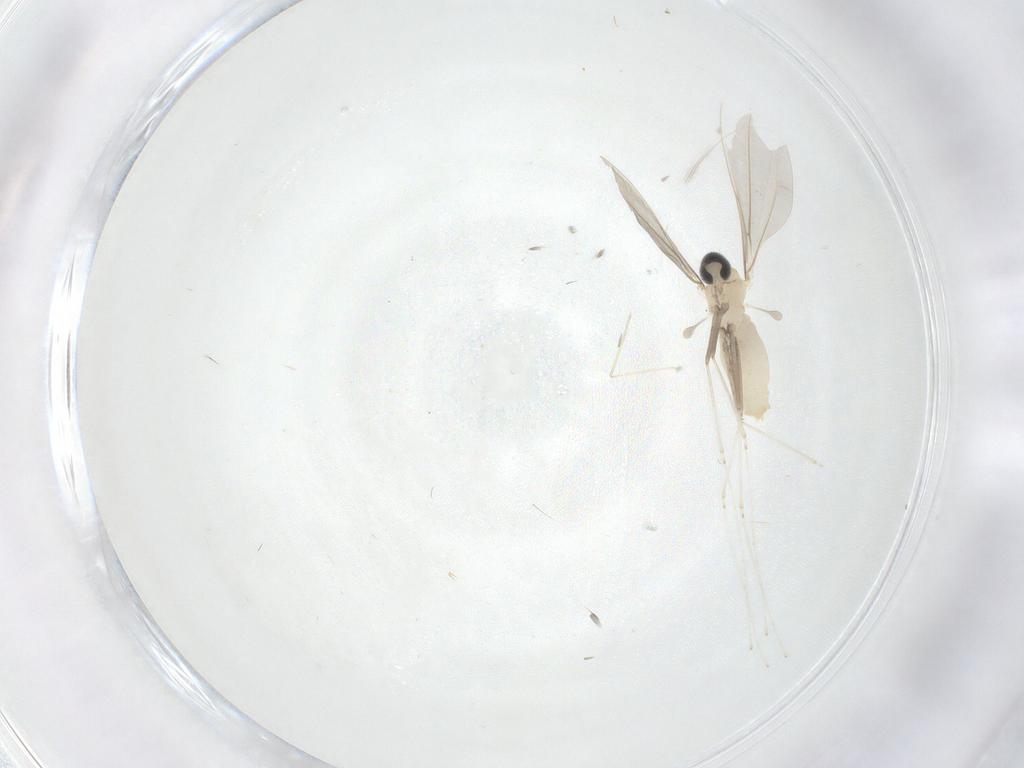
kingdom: Animalia
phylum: Arthropoda
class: Insecta
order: Diptera
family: Cecidomyiidae
